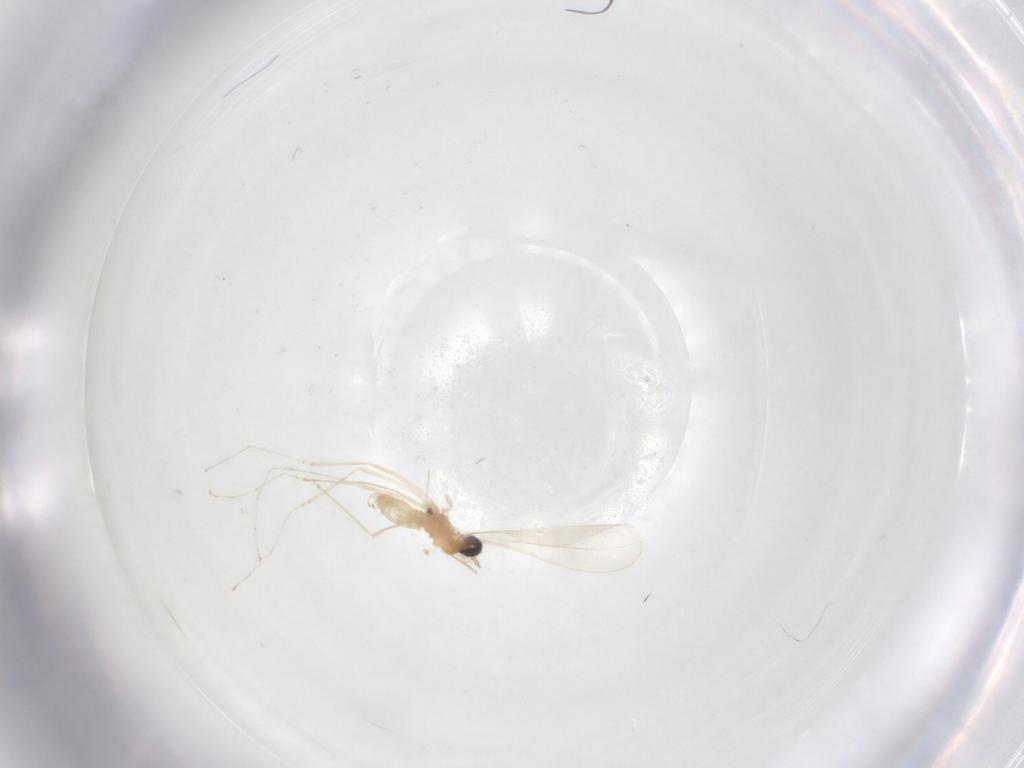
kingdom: Animalia
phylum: Arthropoda
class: Insecta
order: Diptera
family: Cecidomyiidae
